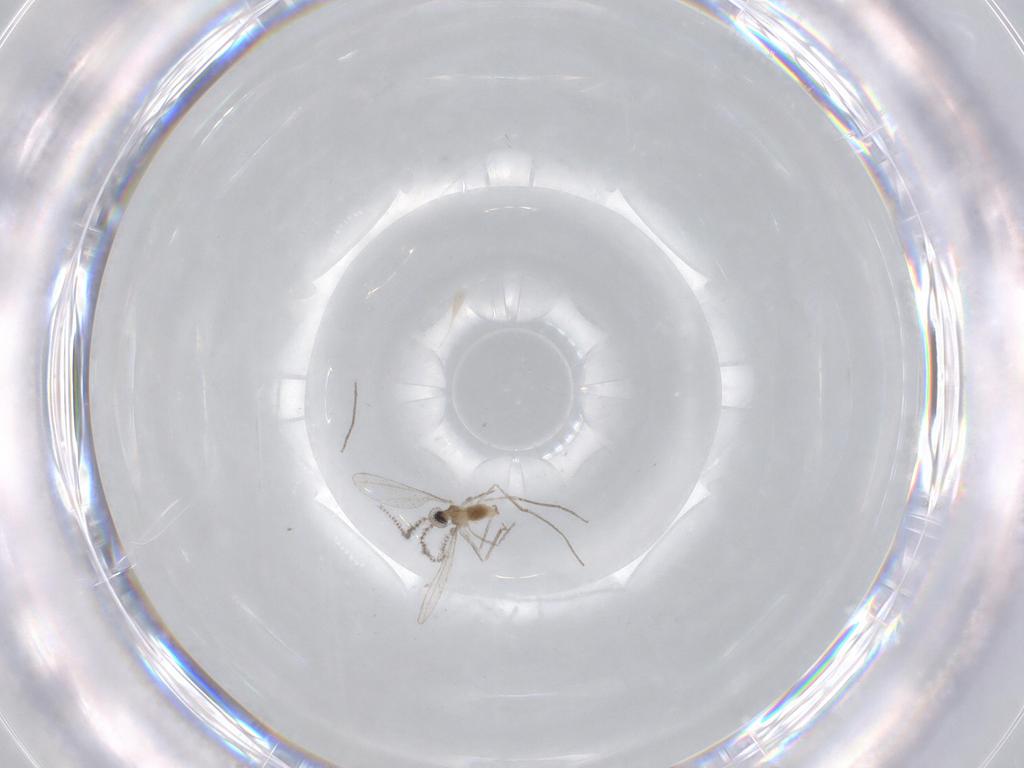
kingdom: Animalia
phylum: Arthropoda
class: Insecta
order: Diptera
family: Cecidomyiidae
